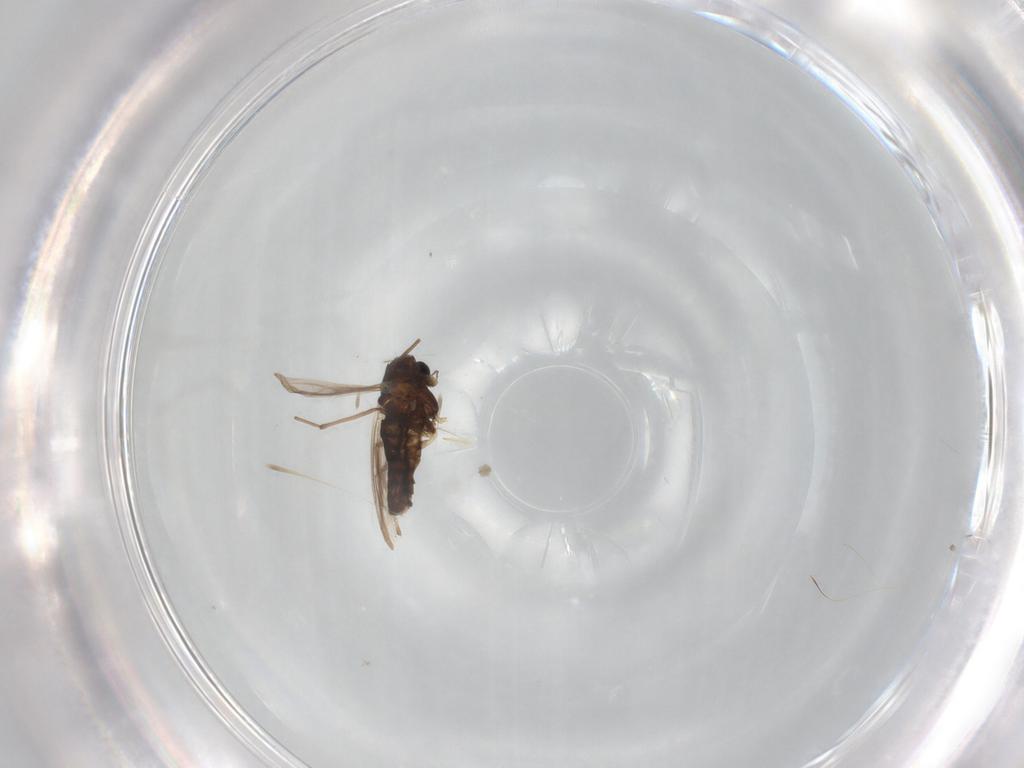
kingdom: Animalia
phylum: Arthropoda
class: Insecta
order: Diptera
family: Chironomidae
